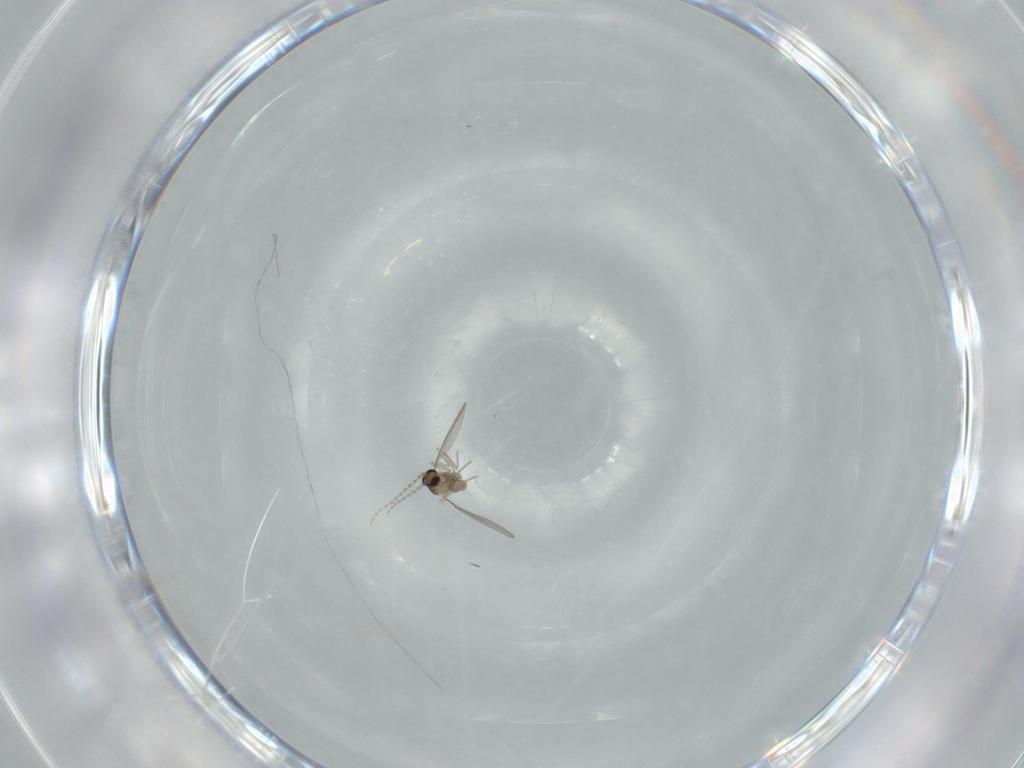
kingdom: Animalia
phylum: Arthropoda
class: Insecta
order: Diptera
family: Cecidomyiidae
